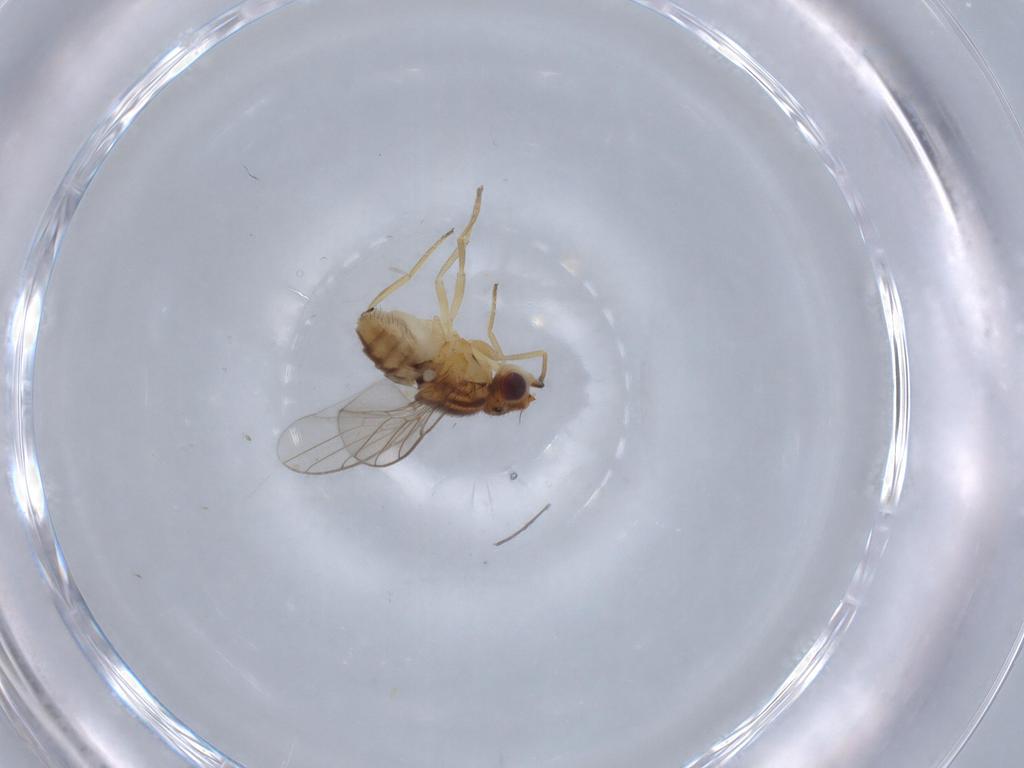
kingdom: Animalia
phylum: Arthropoda
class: Insecta
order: Diptera
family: Chloropidae
